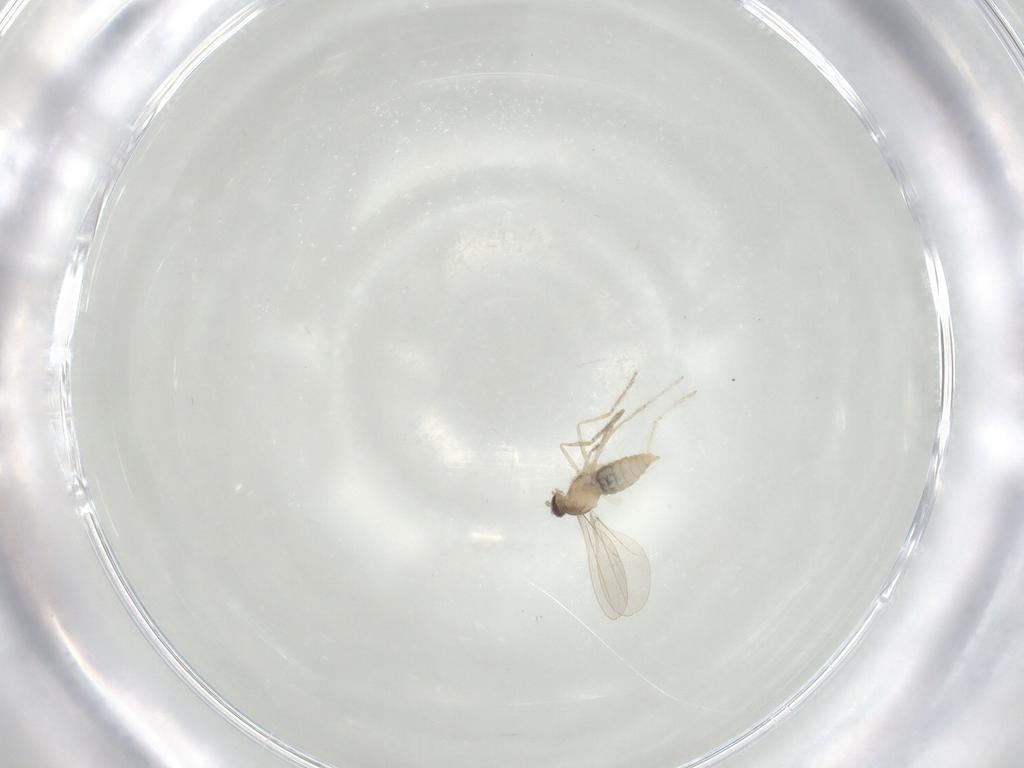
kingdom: Animalia
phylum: Arthropoda
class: Insecta
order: Diptera
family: Cecidomyiidae
